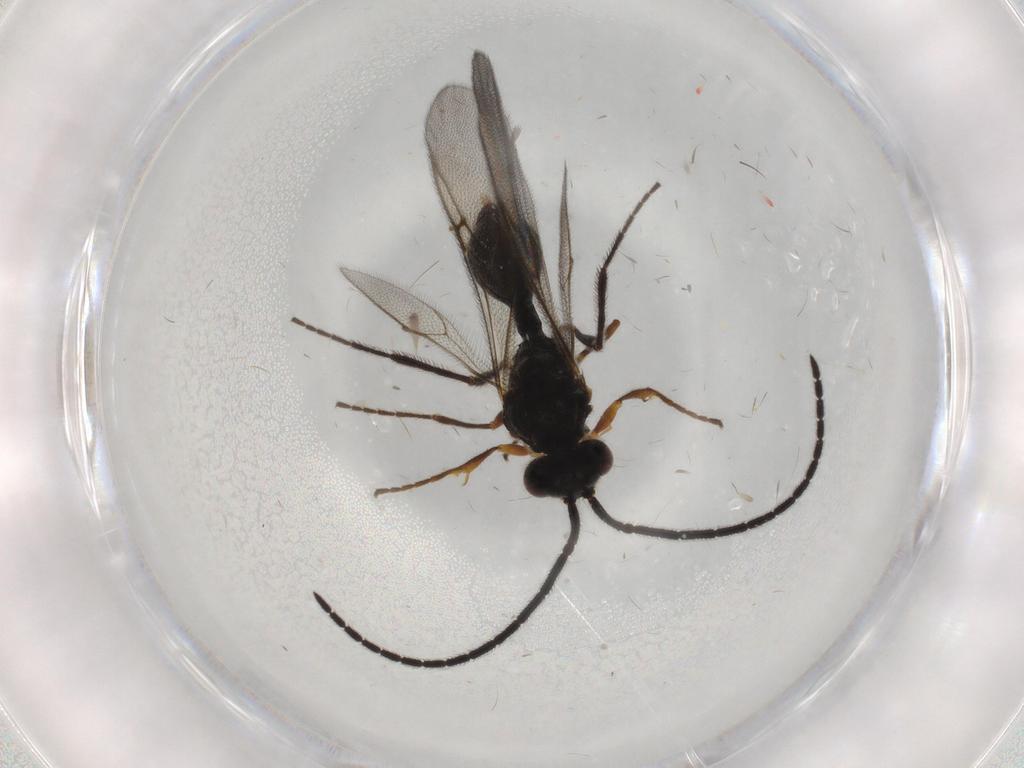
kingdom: Animalia
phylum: Arthropoda
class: Insecta
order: Hymenoptera
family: Diapriidae
